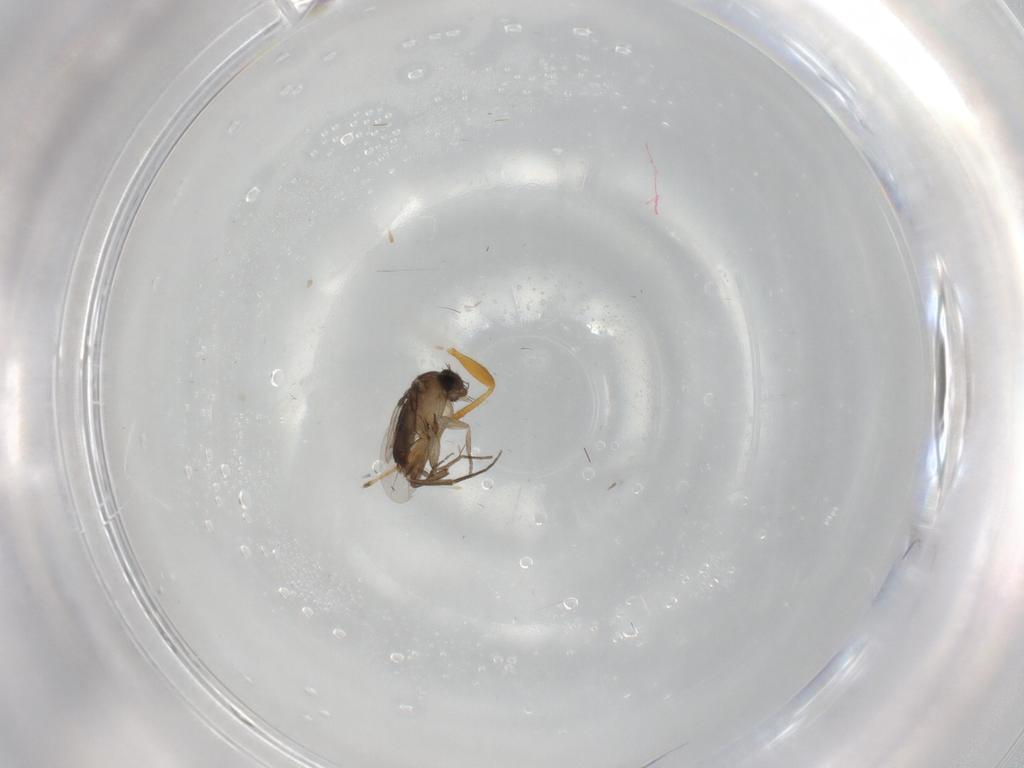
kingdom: Animalia
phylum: Arthropoda
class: Insecta
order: Diptera
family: Phoridae
